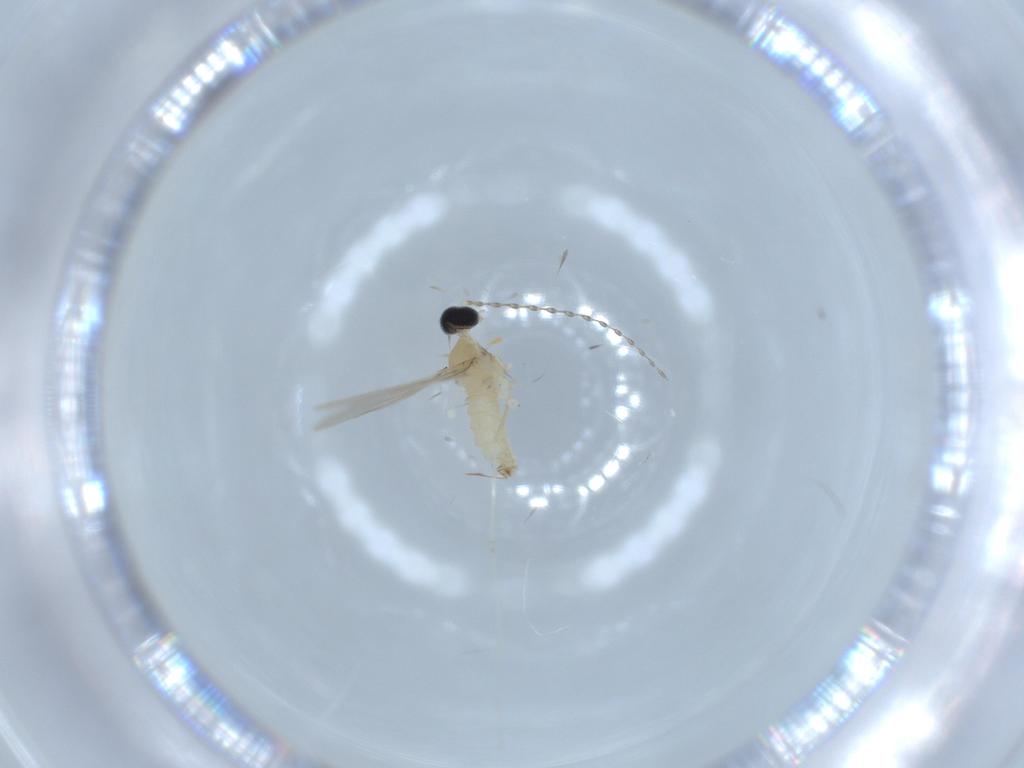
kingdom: Animalia
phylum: Arthropoda
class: Insecta
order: Diptera
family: Cecidomyiidae
